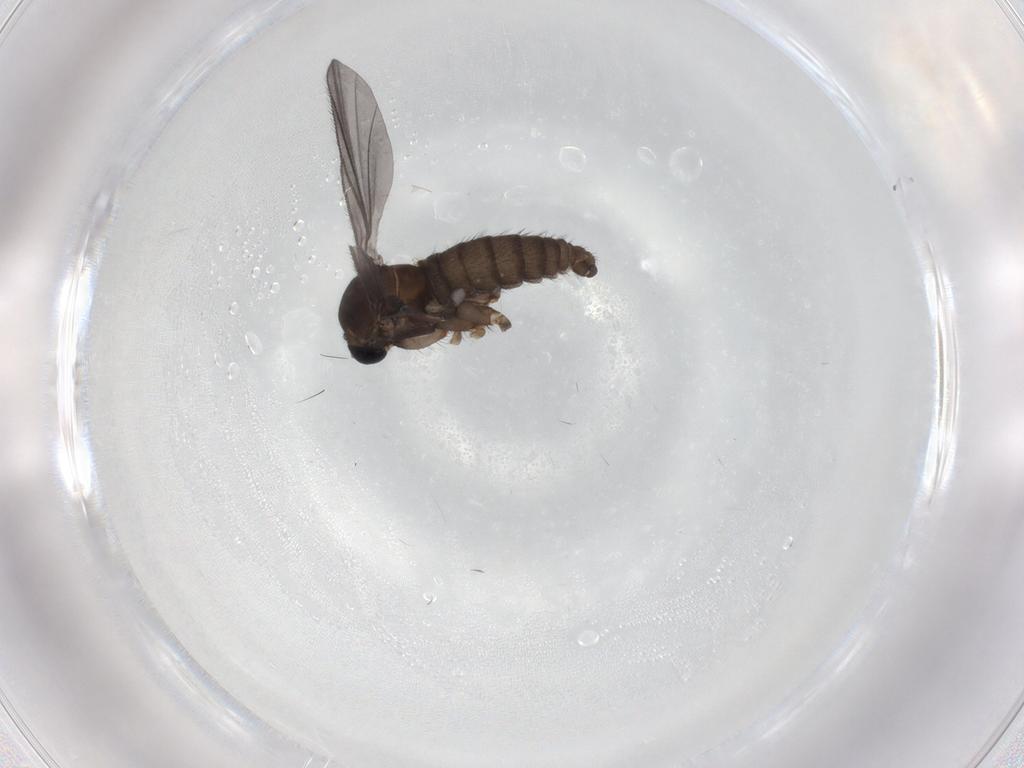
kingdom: Animalia
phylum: Arthropoda
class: Insecta
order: Diptera
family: Sciaridae
